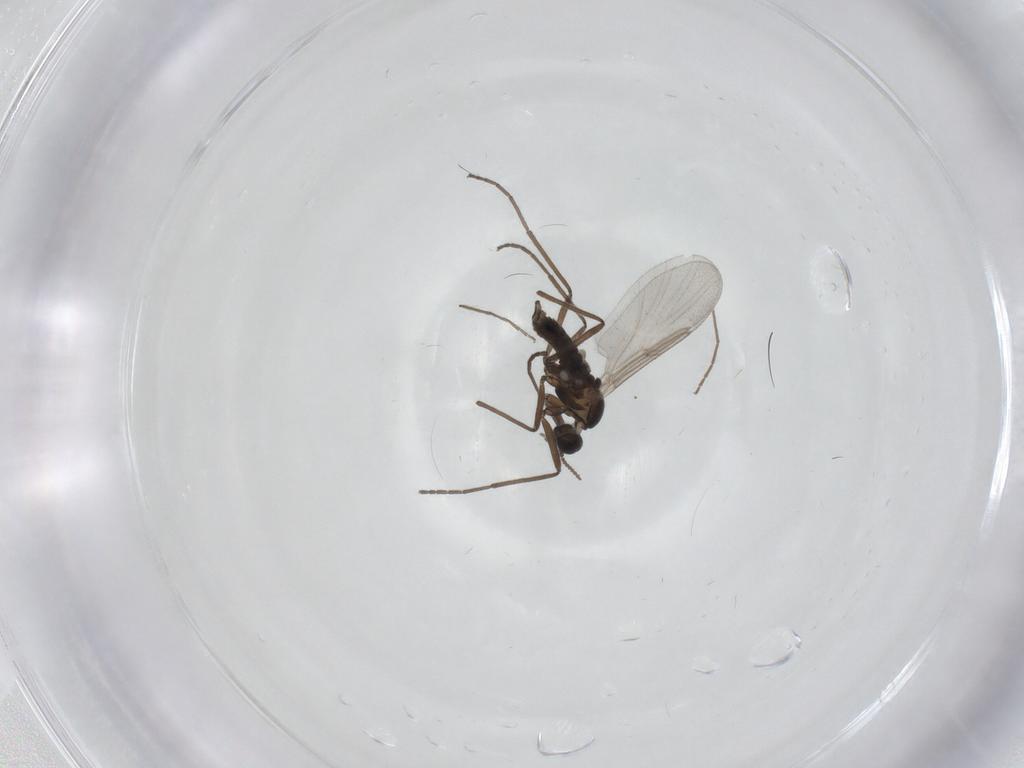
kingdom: Animalia
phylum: Arthropoda
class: Insecta
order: Diptera
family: Cecidomyiidae
